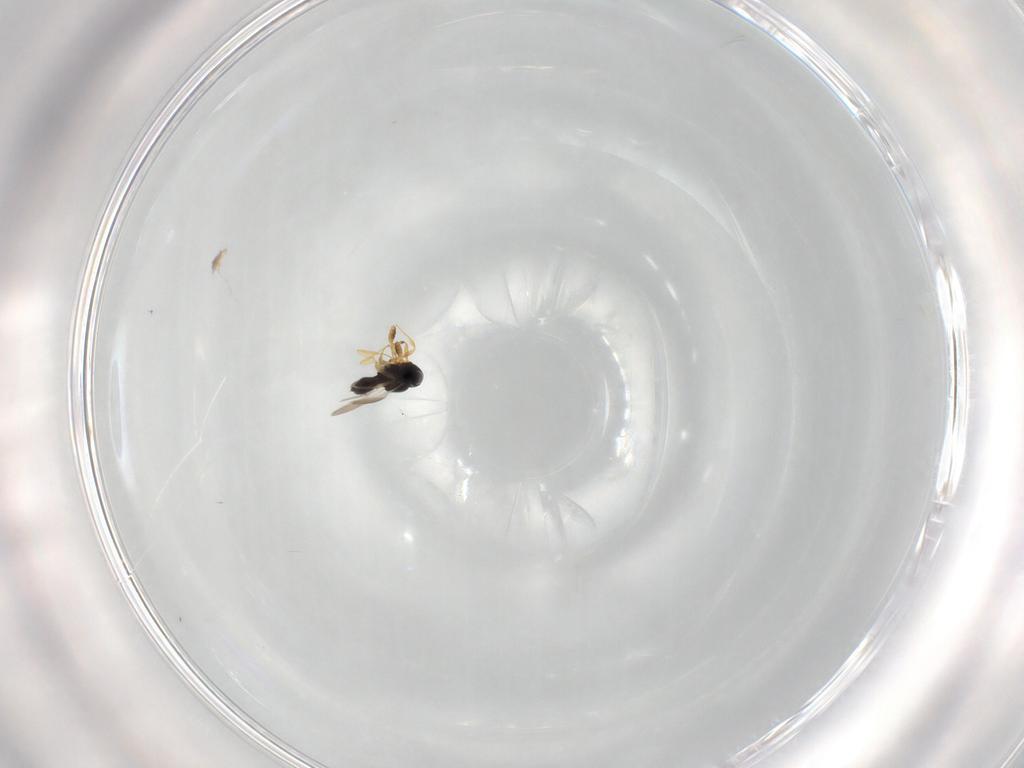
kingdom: Animalia
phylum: Arthropoda
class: Insecta
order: Hymenoptera
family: Scelionidae
